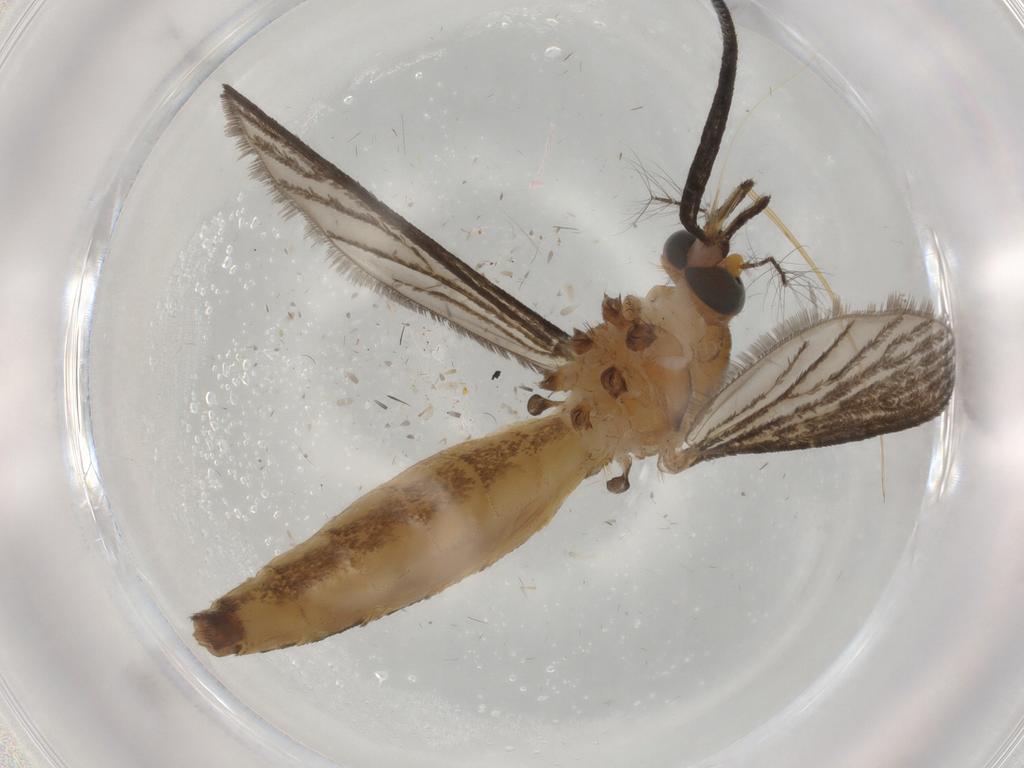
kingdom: Animalia
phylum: Arthropoda
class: Insecta
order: Diptera
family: Culicidae
